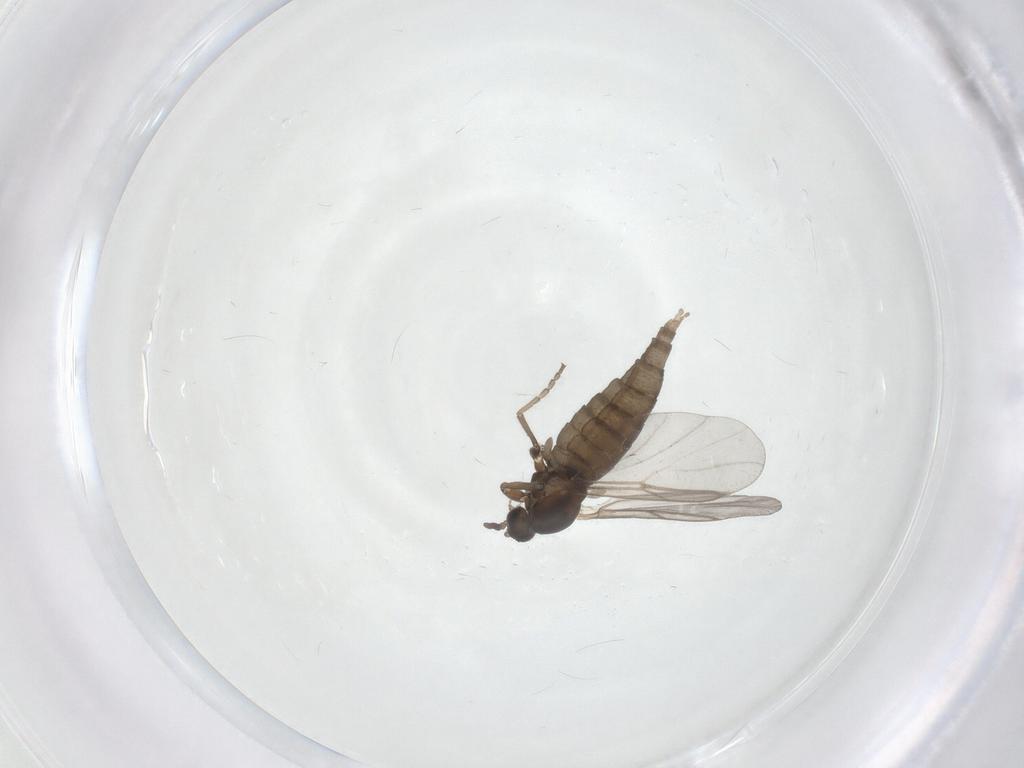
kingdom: Animalia
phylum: Arthropoda
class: Insecta
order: Diptera
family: Cecidomyiidae
